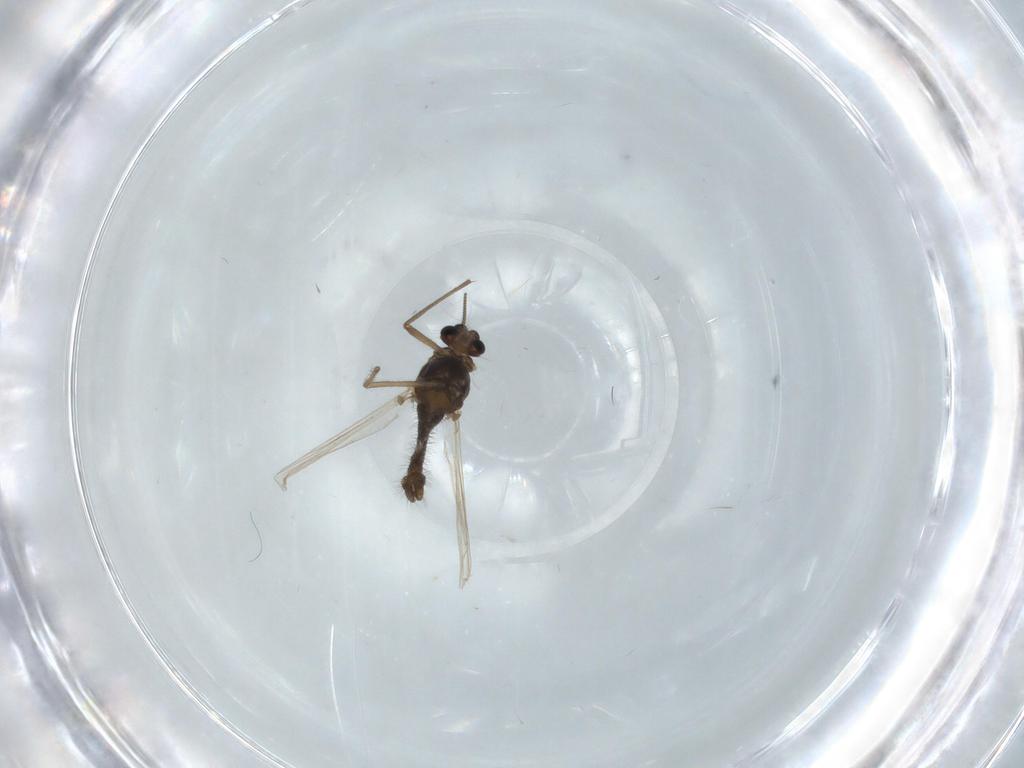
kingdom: Animalia
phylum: Arthropoda
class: Insecta
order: Diptera
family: Chironomidae
